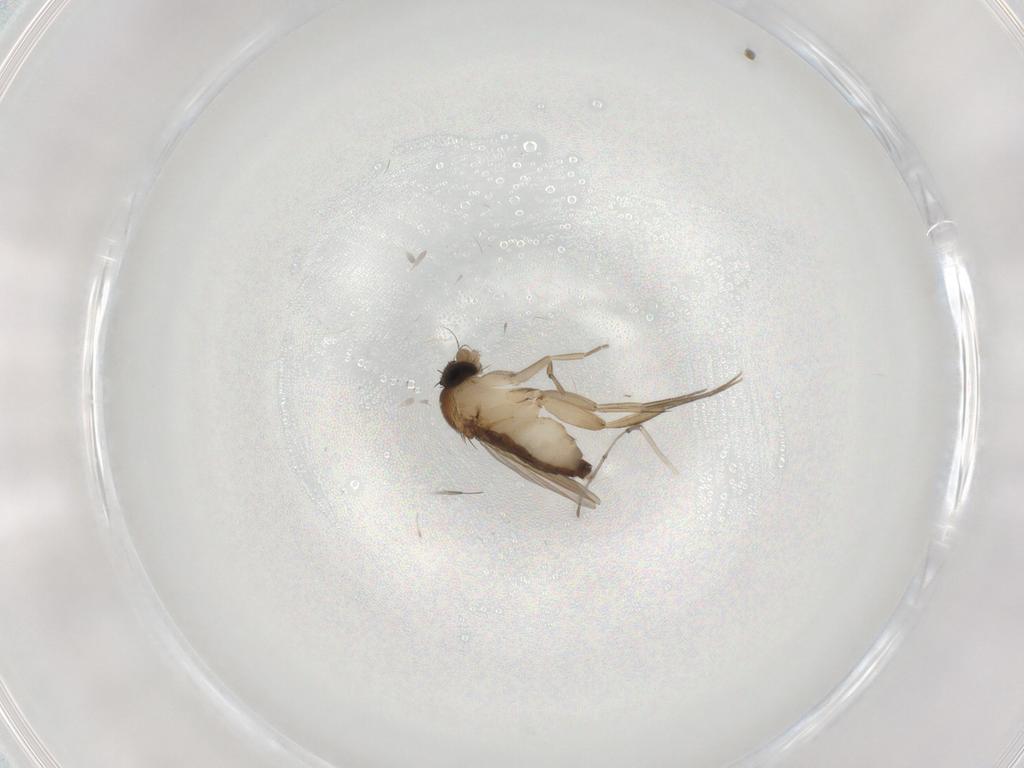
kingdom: Animalia
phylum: Arthropoda
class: Insecta
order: Diptera
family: Phoridae
